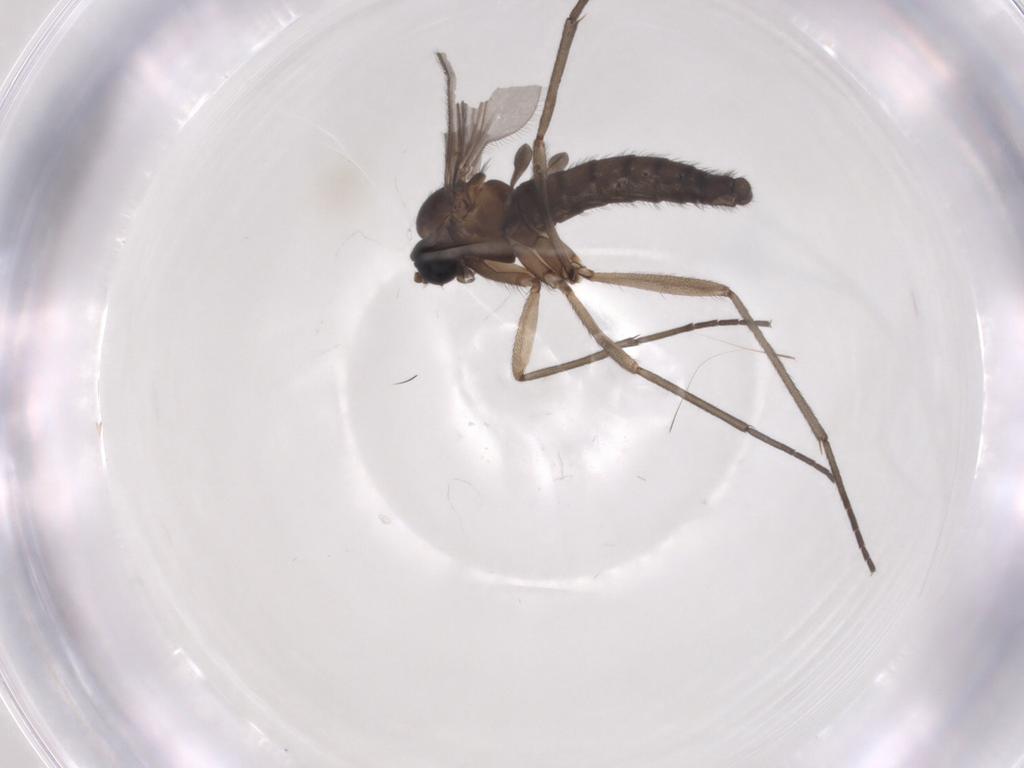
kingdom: Animalia
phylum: Arthropoda
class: Insecta
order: Diptera
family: Sciaridae
